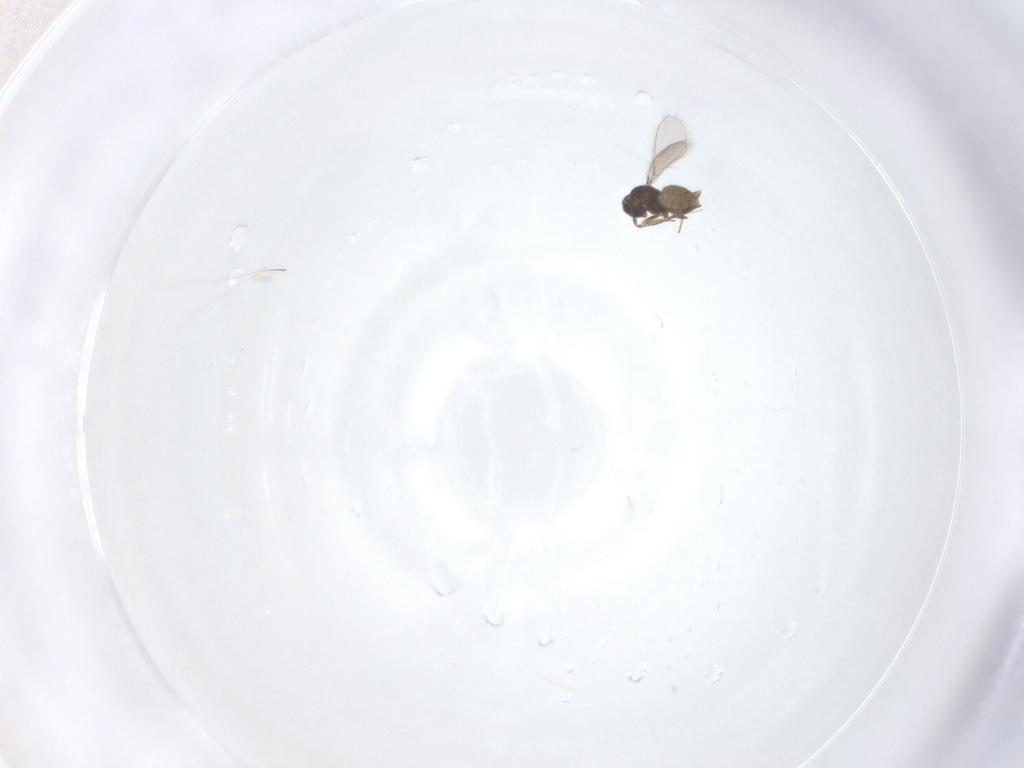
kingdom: Animalia
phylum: Arthropoda
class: Insecta
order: Hymenoptera
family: Mymaridae
